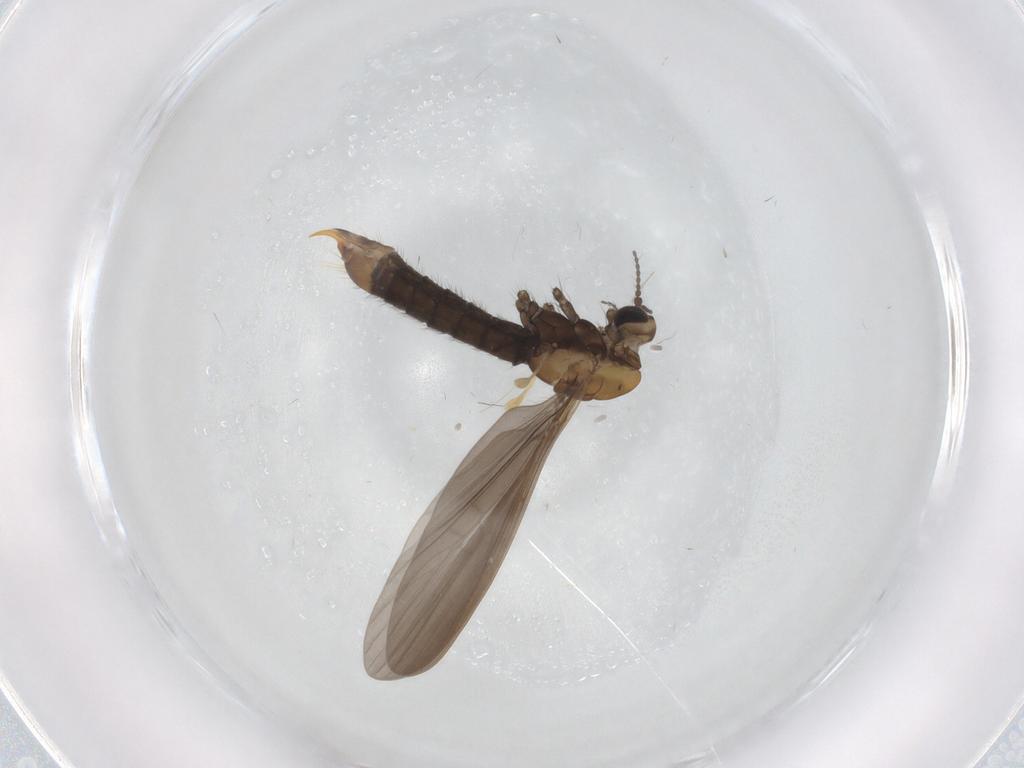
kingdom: Animalia
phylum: Arthropoda
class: Insecta
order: Diptera
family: Limoniidae
